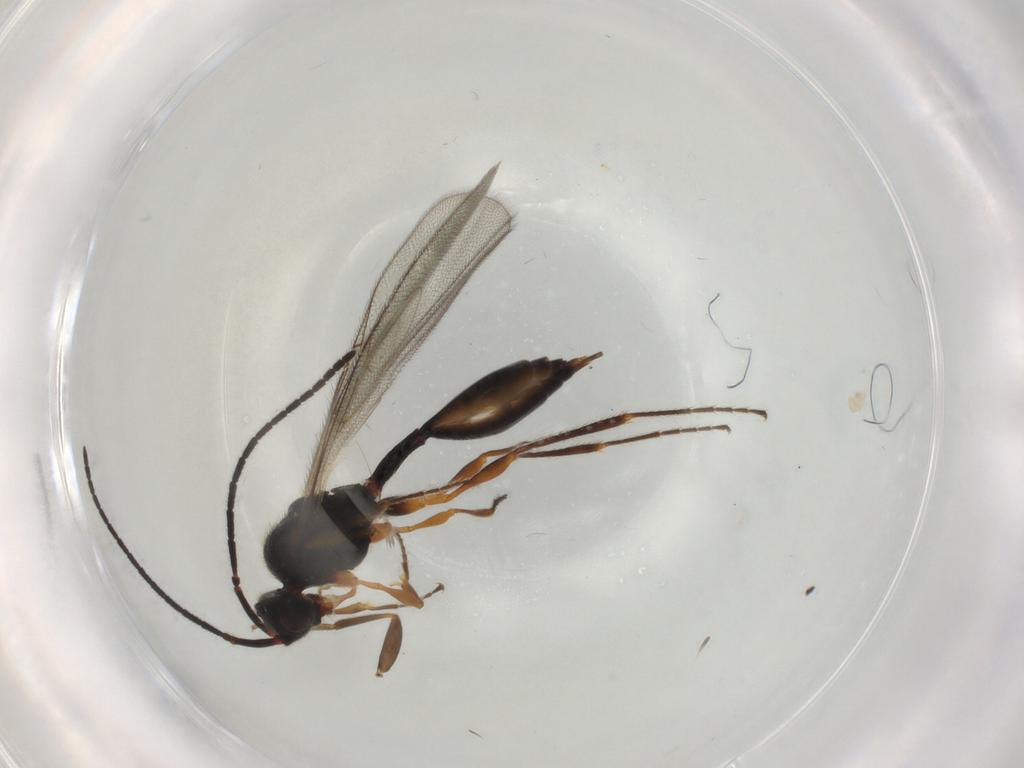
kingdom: Animalia
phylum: Arthropoda
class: Insecta
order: Hymenoptera
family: Diapriidae
